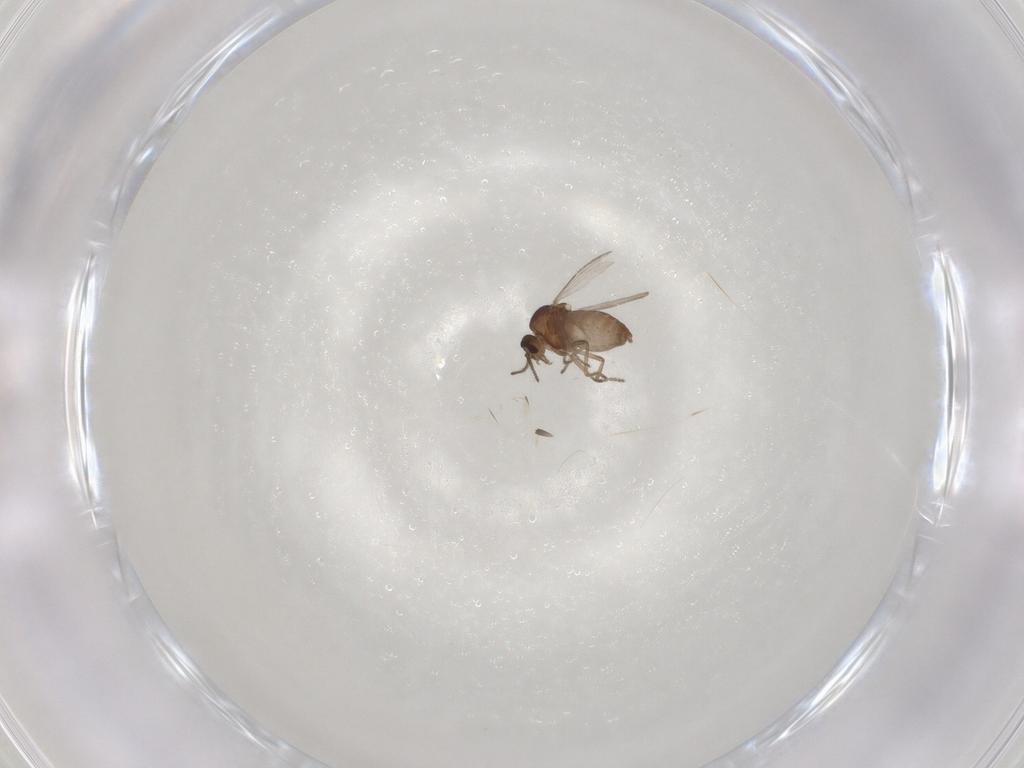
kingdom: Animalia
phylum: Arthropoda
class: Insecta
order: Diptera
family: Ceratopogonidae
